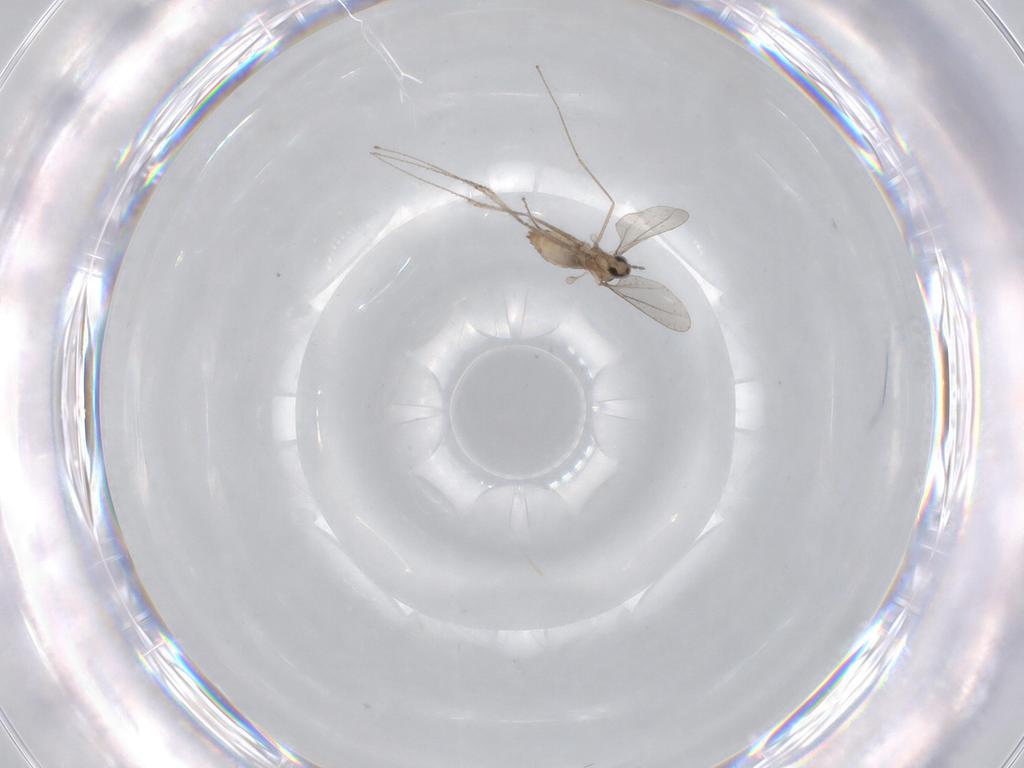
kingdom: Animalia
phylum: Arthropoda
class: Insecta
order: Diptera
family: Cecidomyiidae
